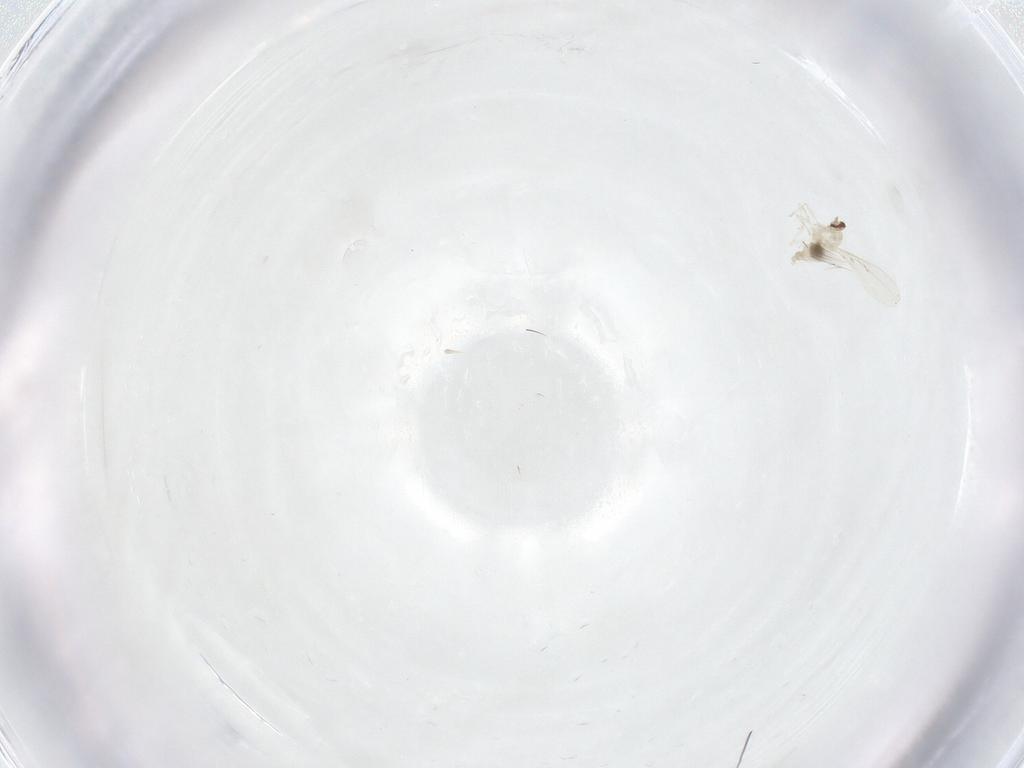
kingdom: Animalia
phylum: Arthropoda
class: Insecta
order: Diptera
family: Cecidomyiidae
